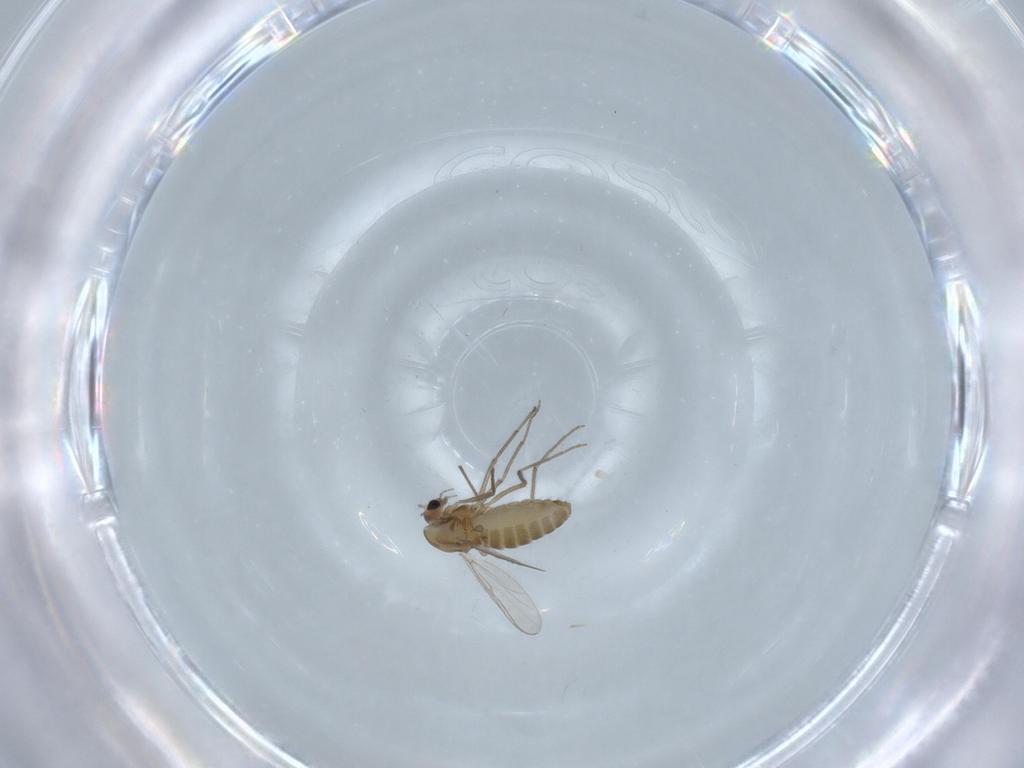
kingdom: Animalia
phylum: Arthropoda
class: Insecta
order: Diptera
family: Chironomidae
